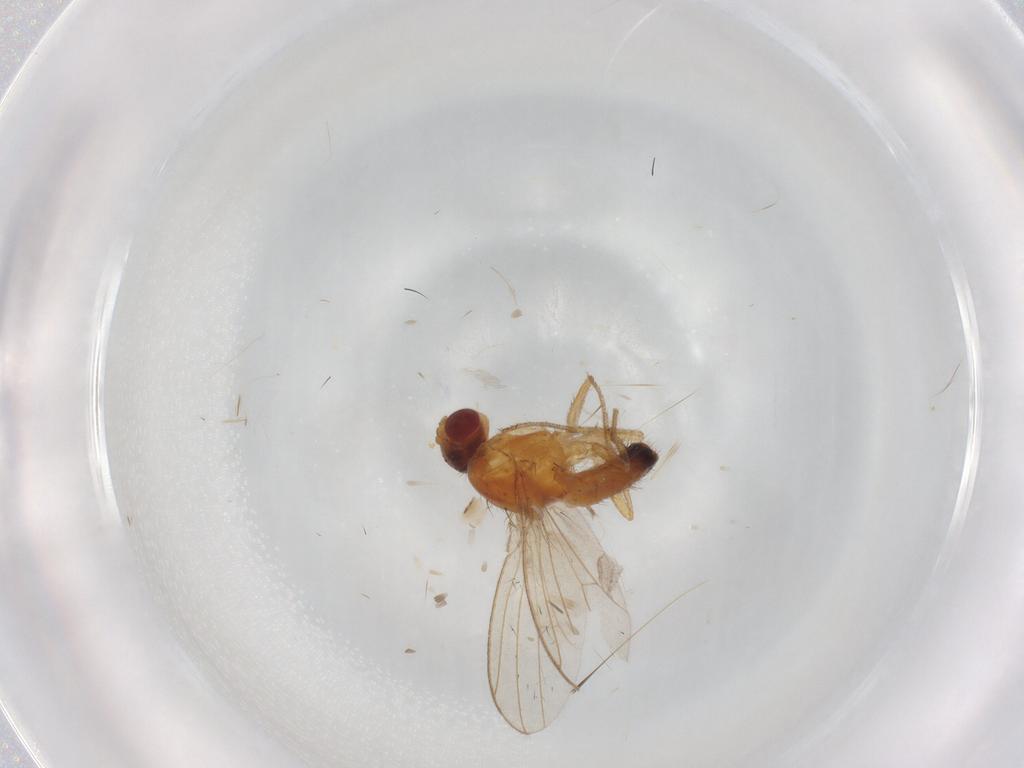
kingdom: Animalia
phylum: Arthropoda
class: Insecta
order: Diptera
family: Drosophilidae
